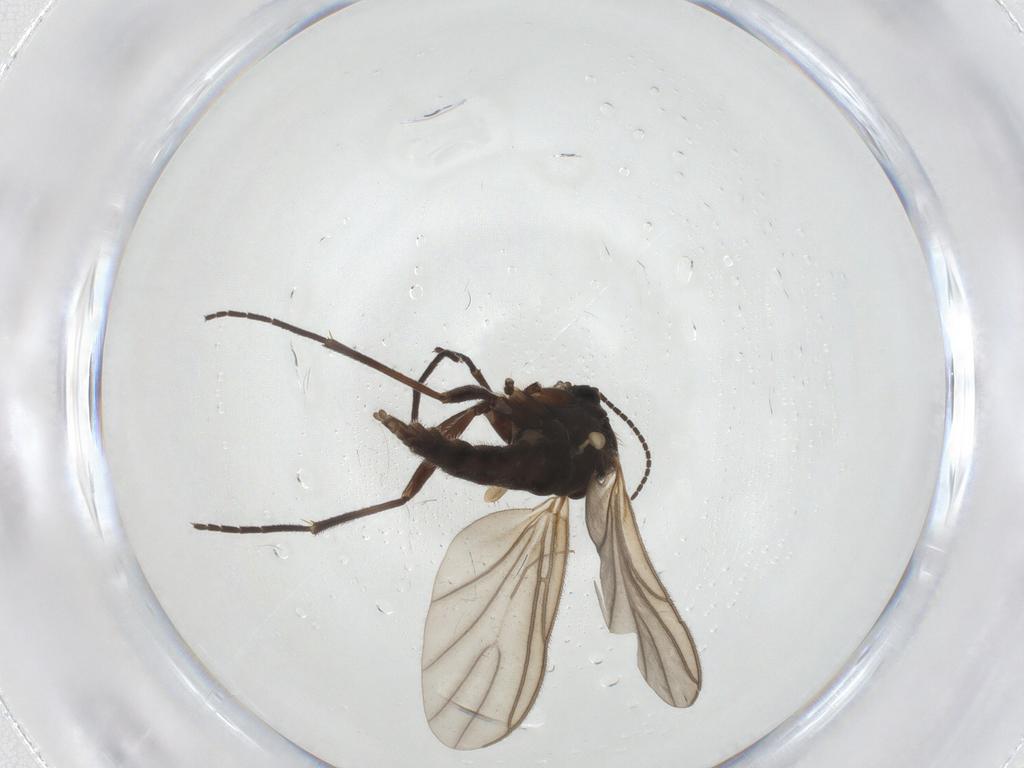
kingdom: Animalia
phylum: Arthropoda
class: Insecta
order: Diptera
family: Sciaridae
